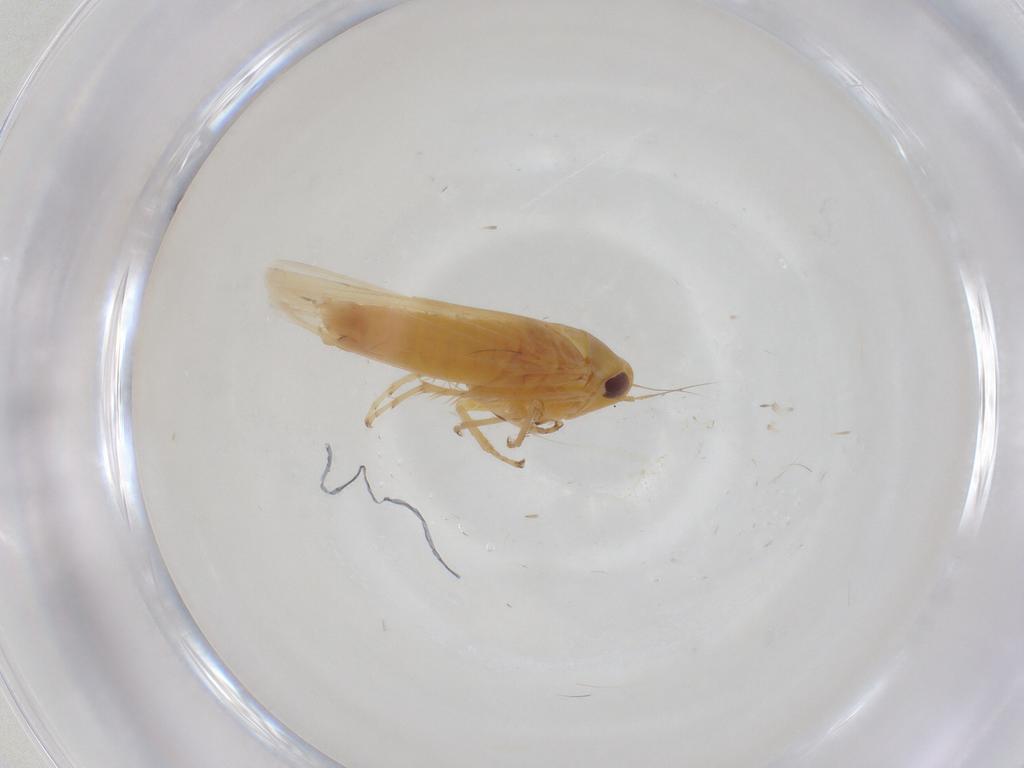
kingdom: Animalia
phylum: Arthropoda
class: Insecta
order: Hemiptera
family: Cicadellidae
